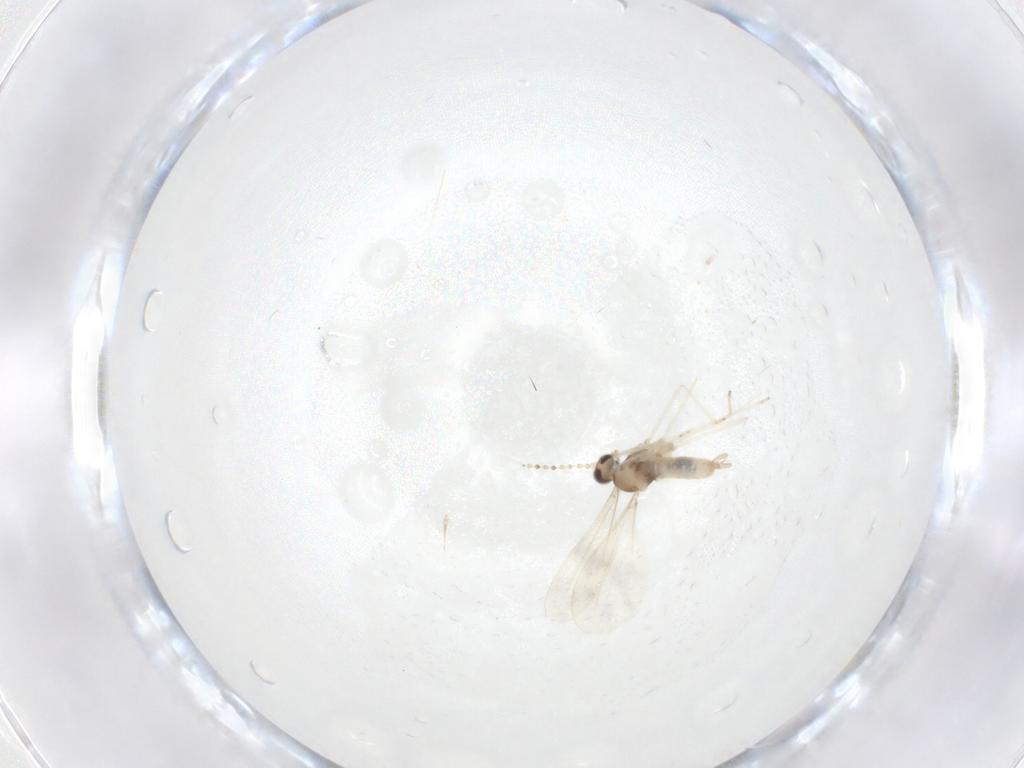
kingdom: Animalia
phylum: Arthropoda
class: Insecta
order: Diptera
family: Cecidomyiidae
